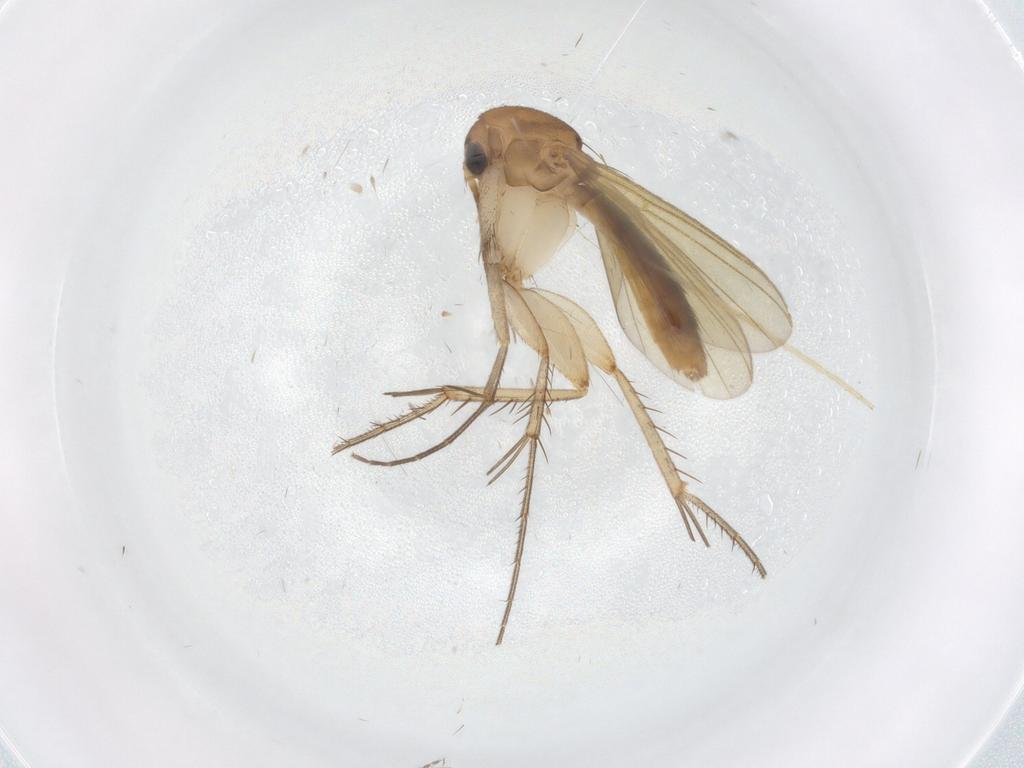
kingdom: Animalia
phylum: Arthropoda
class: Insecta
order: Diptera
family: Mycetophilidae
